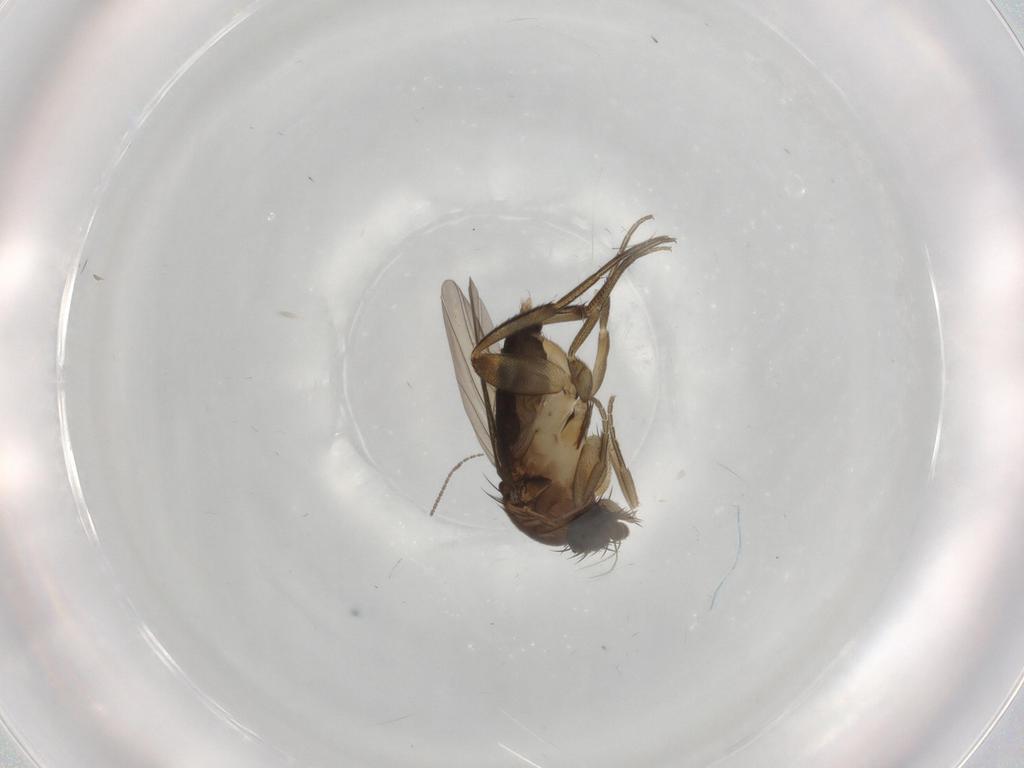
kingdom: Animalia
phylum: Arthropoda
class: Insecta
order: Diptera
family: Phoridae
